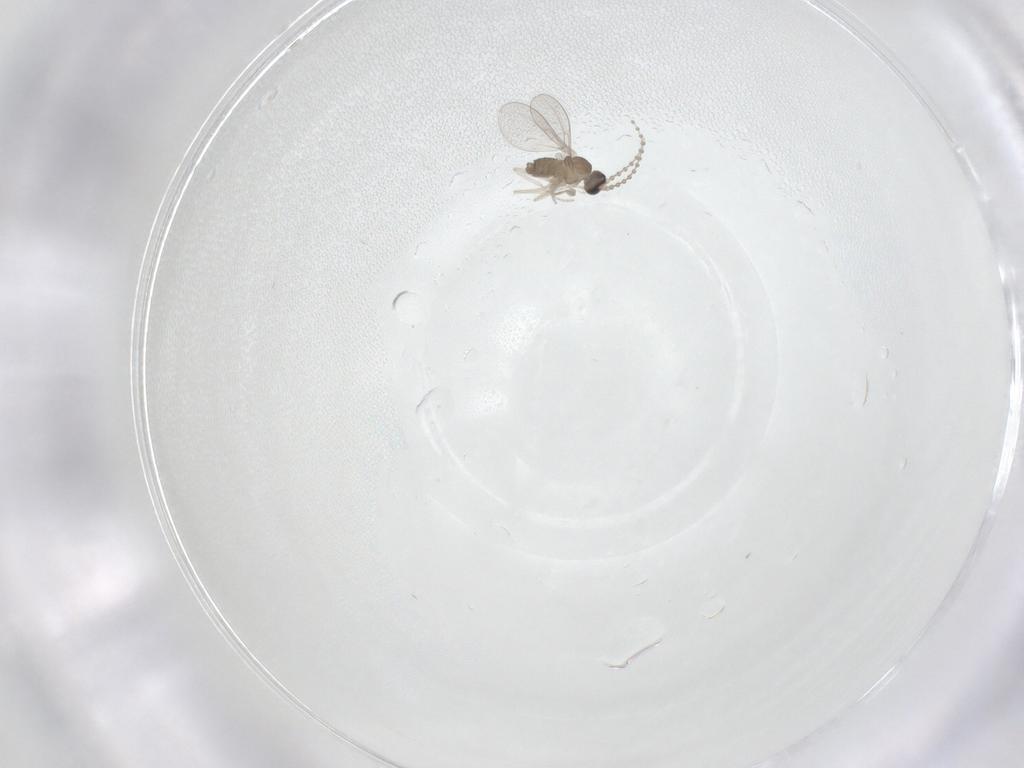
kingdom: Animalia
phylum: Arthropoda
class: Insecta
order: Diptera
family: Cecidomyiidae
